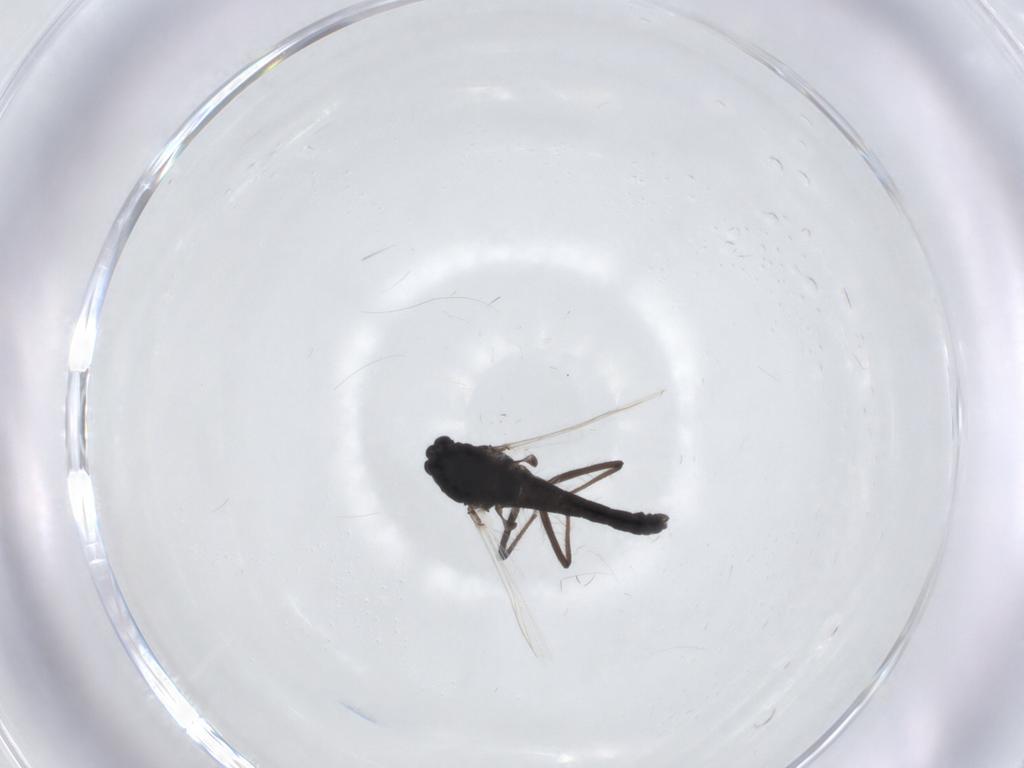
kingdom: Animalia
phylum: Arthropoda
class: Insecta
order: Diptera
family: Chironomidae
